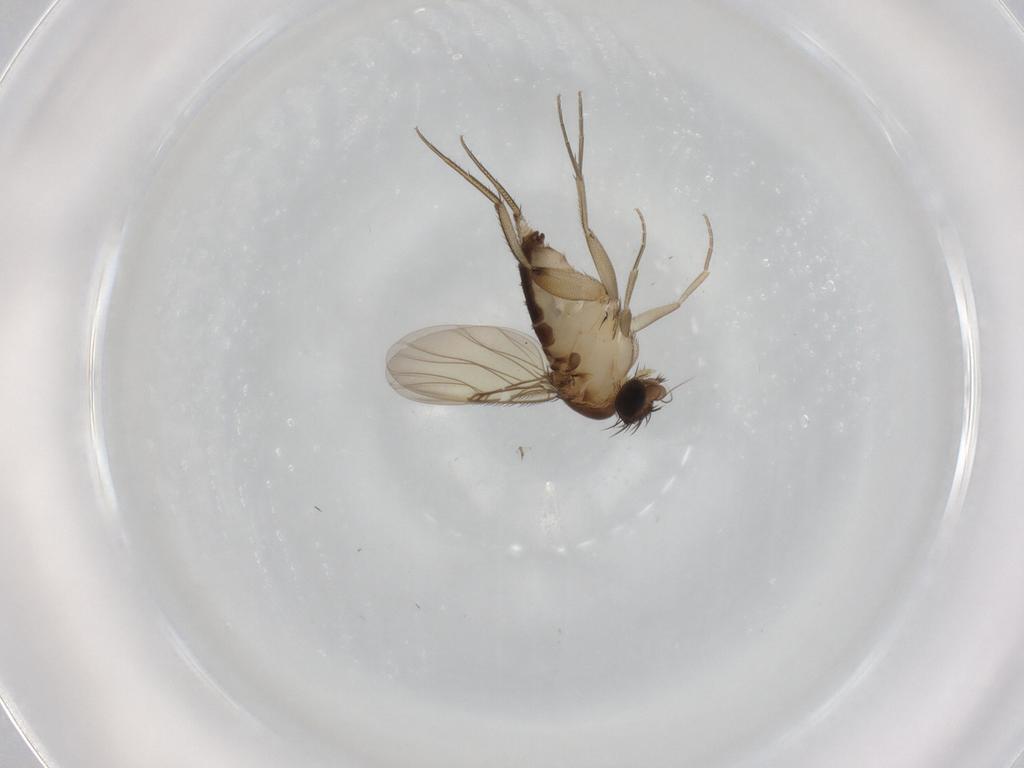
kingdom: Animalia
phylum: Arthropoda
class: Insecta
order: Diptera
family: Phoridae
